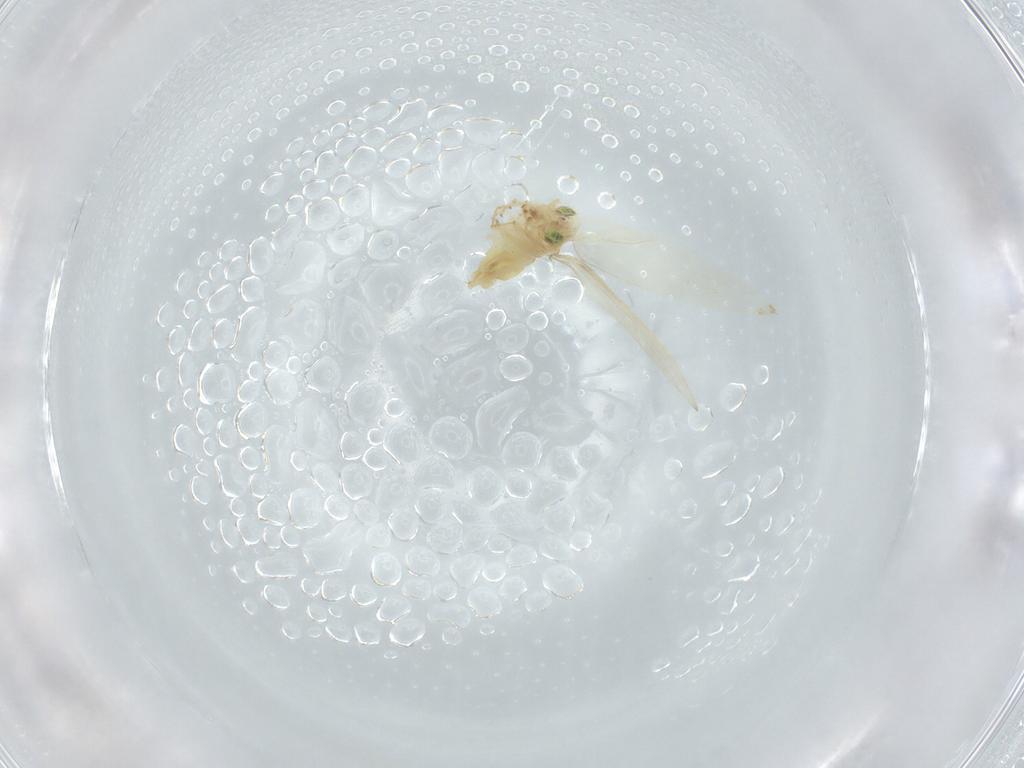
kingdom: Animalia
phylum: Arthropoda
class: Insecta
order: Psocodea
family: Lepidopsocidae
